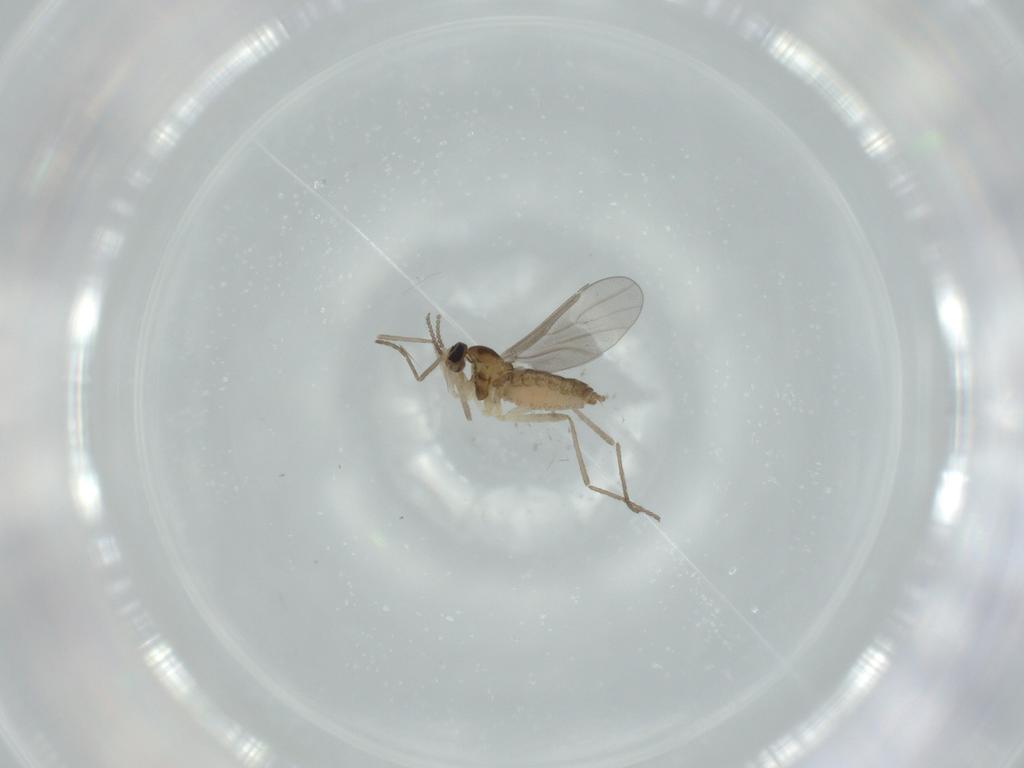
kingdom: Animalia
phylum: Arthropoda
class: Insecta
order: Diptera
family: Cecidomyiidae
